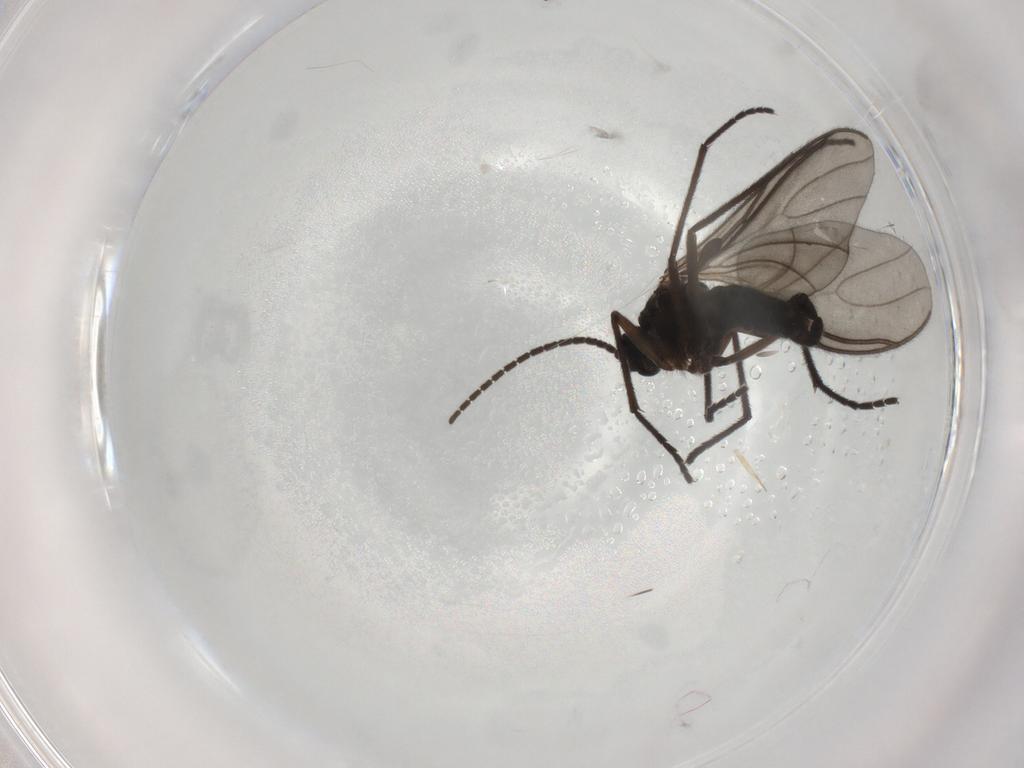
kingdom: Animalia
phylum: Arthropoda
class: Insecta
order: Diptera
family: Sciaridae
